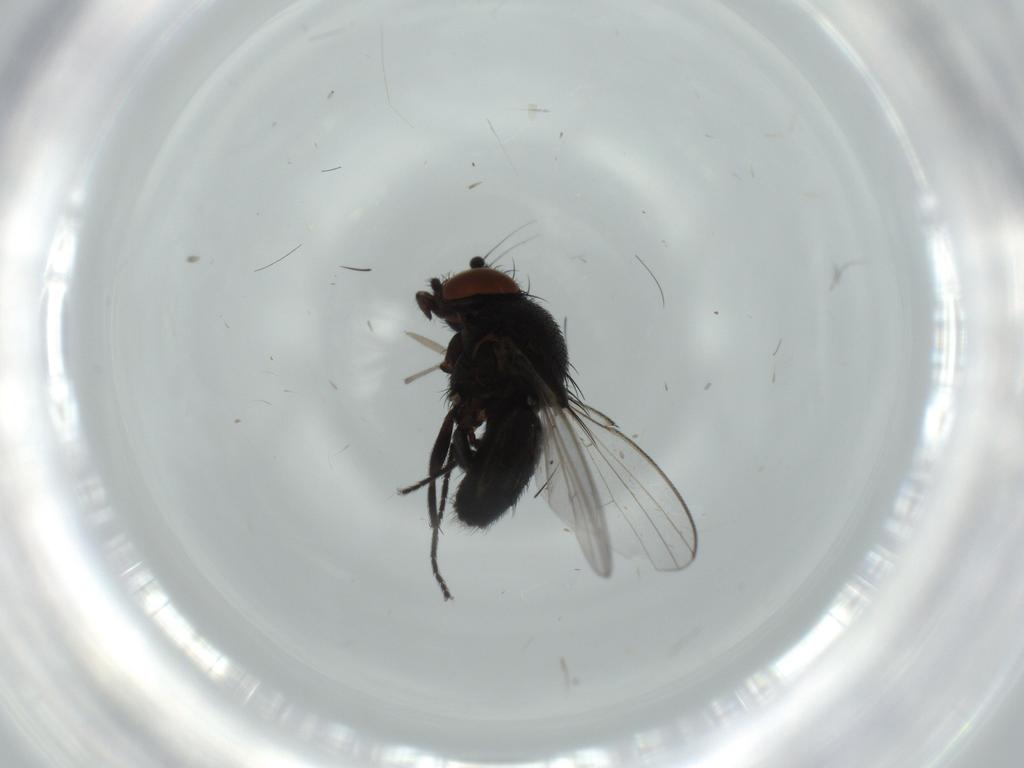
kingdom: Animalia
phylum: Arthropoda
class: Insecta
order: Diptera
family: Milichiidae
